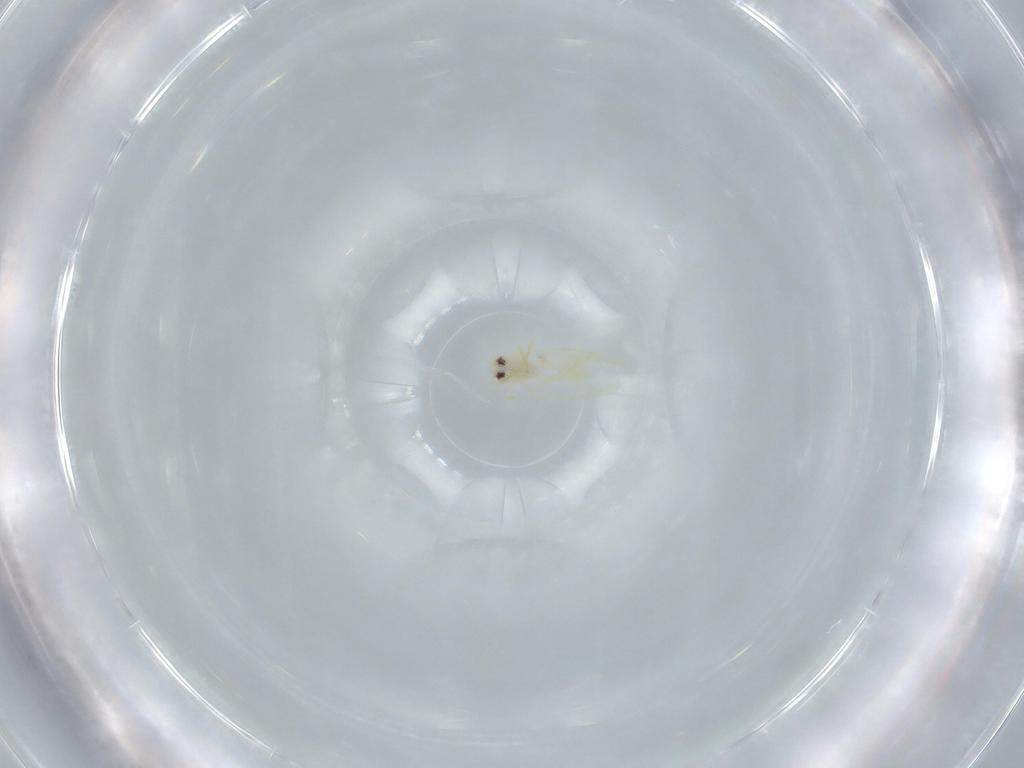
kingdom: Animalia
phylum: Arthropoda
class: Insecta
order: Hemiptera
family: Aleyrodidae
